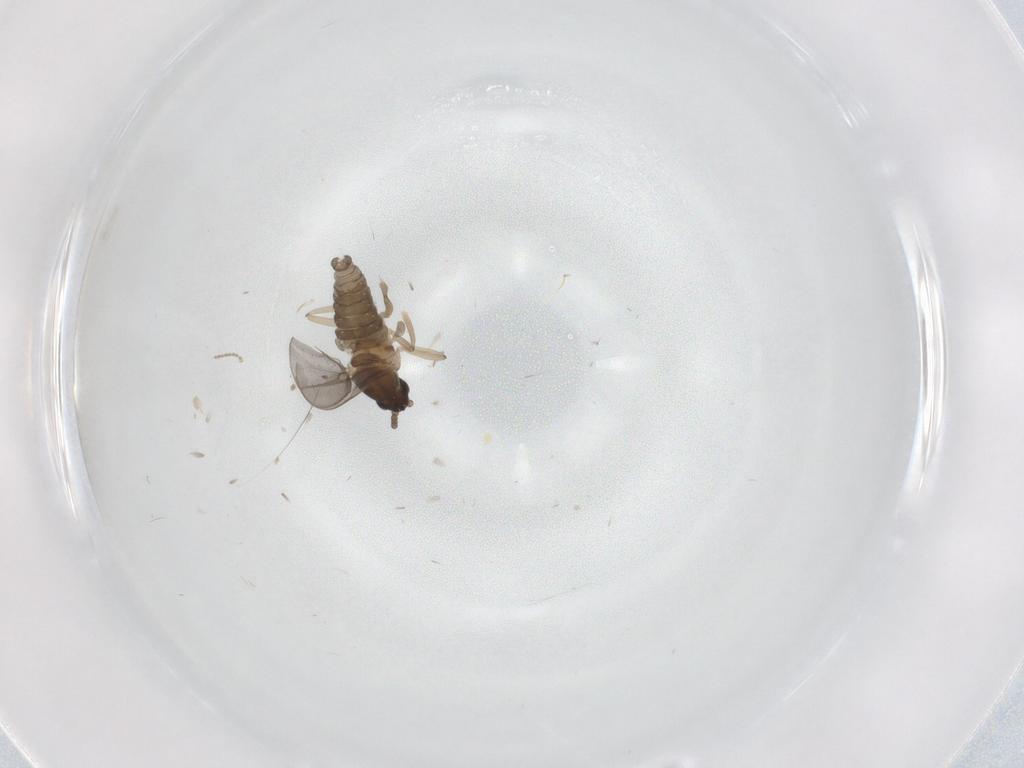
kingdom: Animalia
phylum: Arthropoda
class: Insecta
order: Diptera
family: Cecidomyiidae
